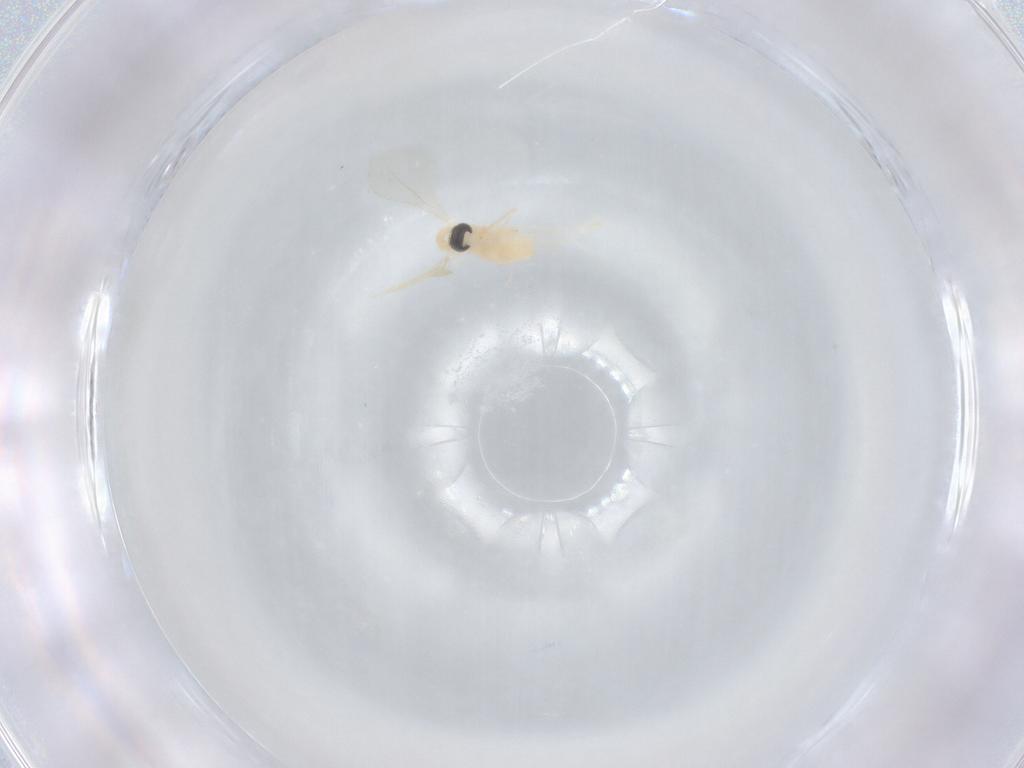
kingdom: Animalia
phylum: Arthropoda
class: Insecta
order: Diptera
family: Cecidomyiidae
